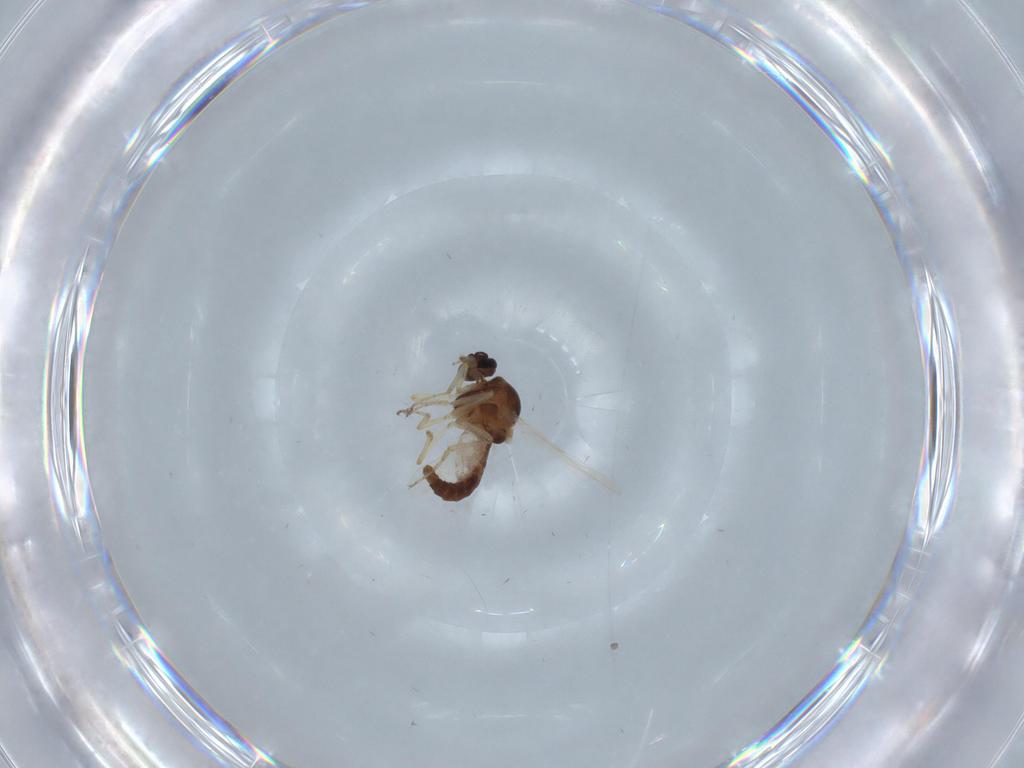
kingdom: Animalia
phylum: Arthropoda
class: Insecta
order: Diptera
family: Ceratopogonidae
